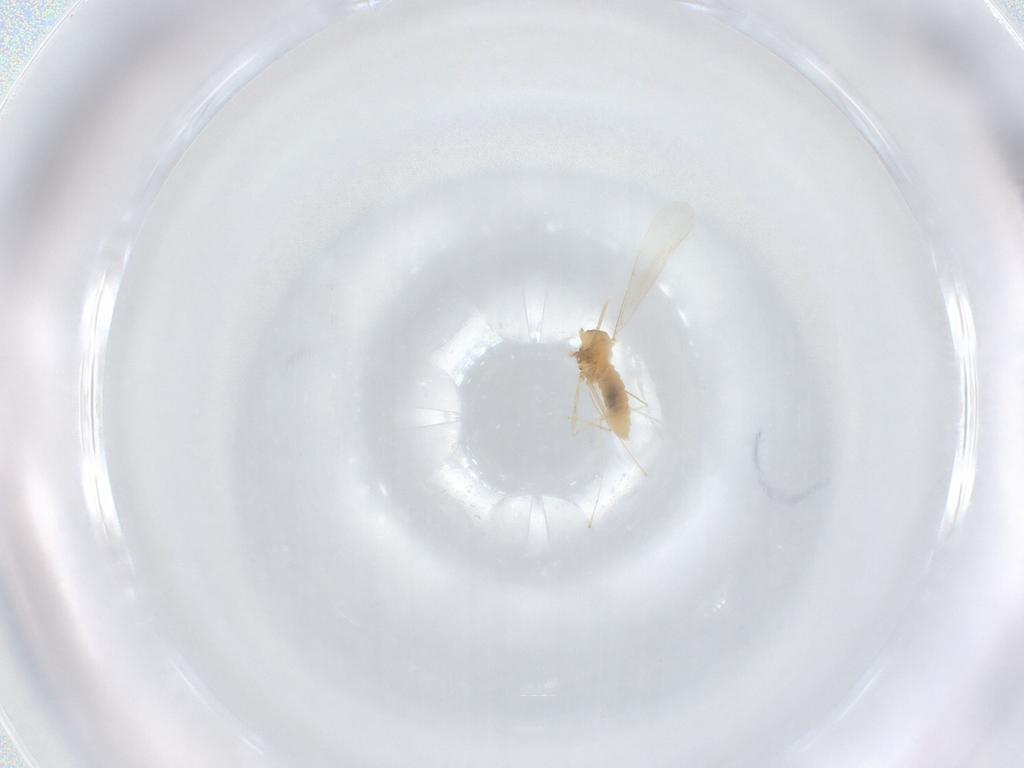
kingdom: Animalia
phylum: Arthropoda
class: Insecta
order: Diptera
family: Cecidomyiidae
